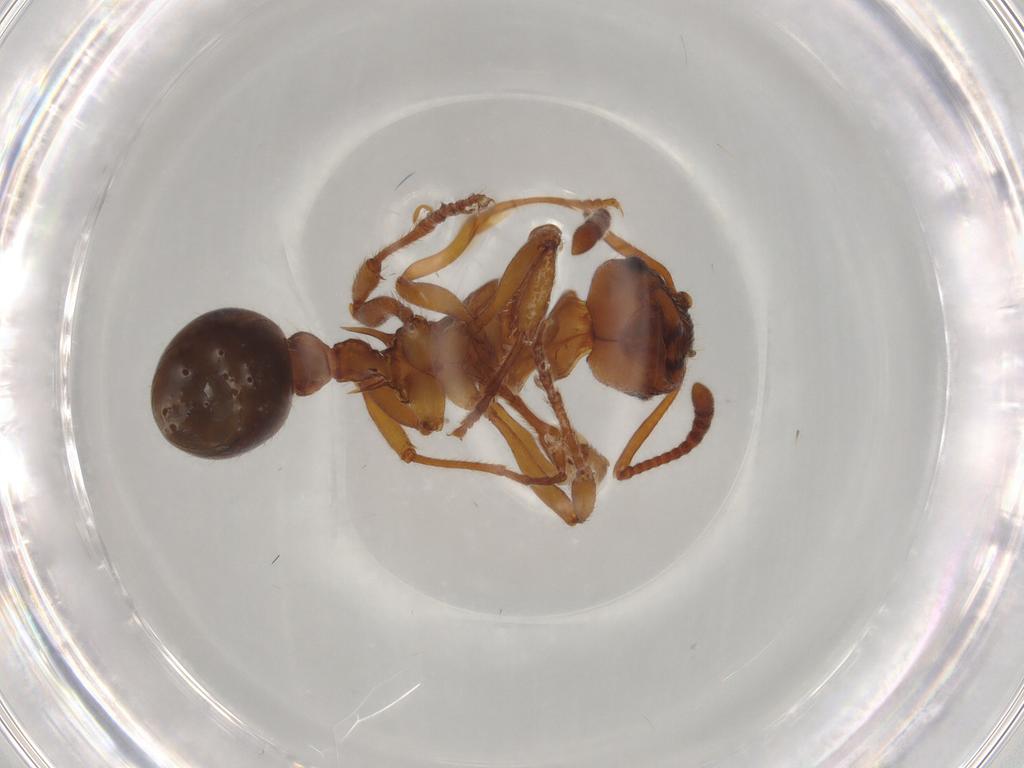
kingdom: Animalia
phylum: Arthropoda
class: Insecta
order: Hymenoptera
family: Formicidae
